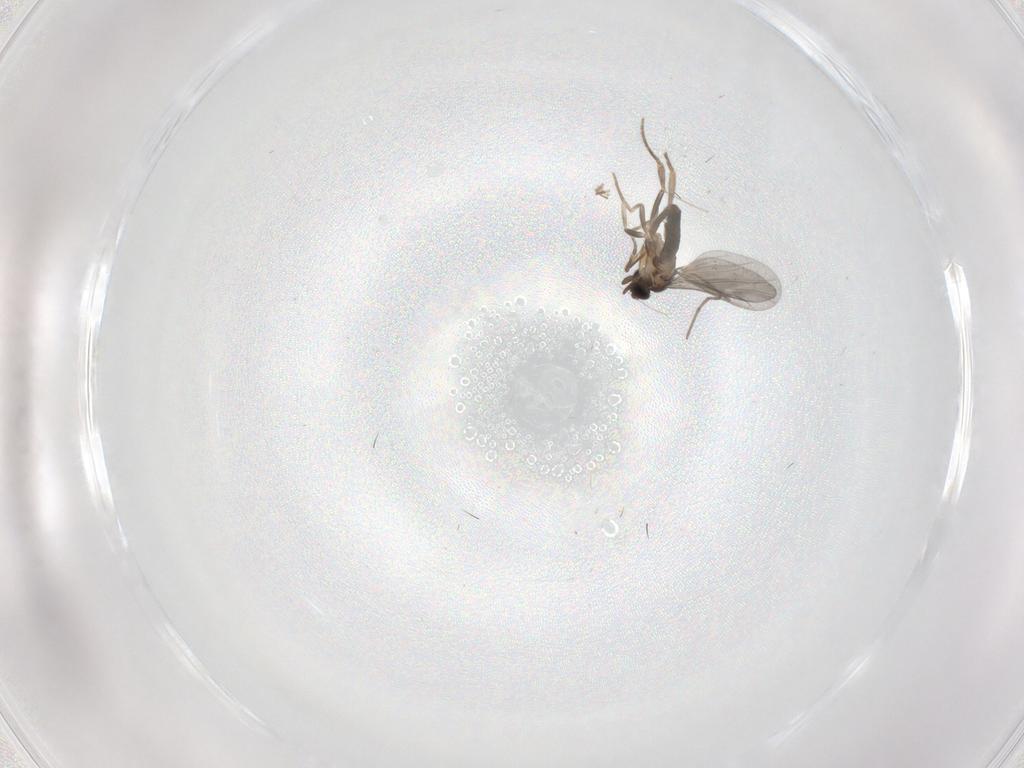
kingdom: Animalia
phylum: Arthropoda
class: Insecta
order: Diptera
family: Chironomidae
